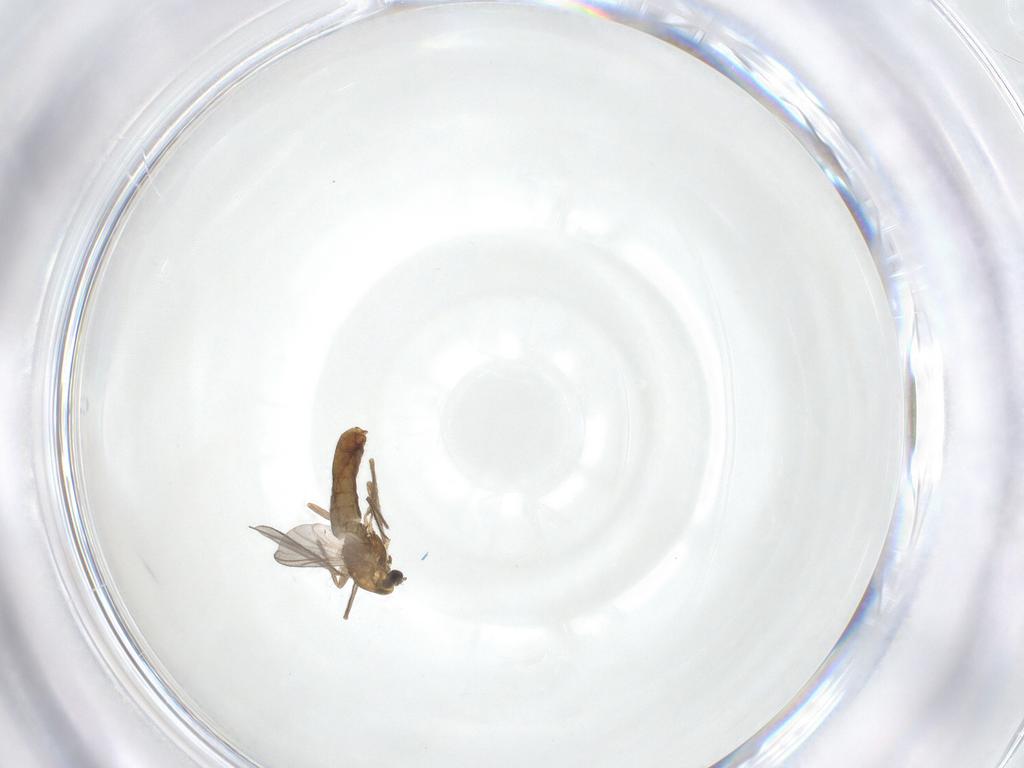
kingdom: Animalia
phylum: Arthropoda
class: Insecta
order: Diptera
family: Chironomidae
